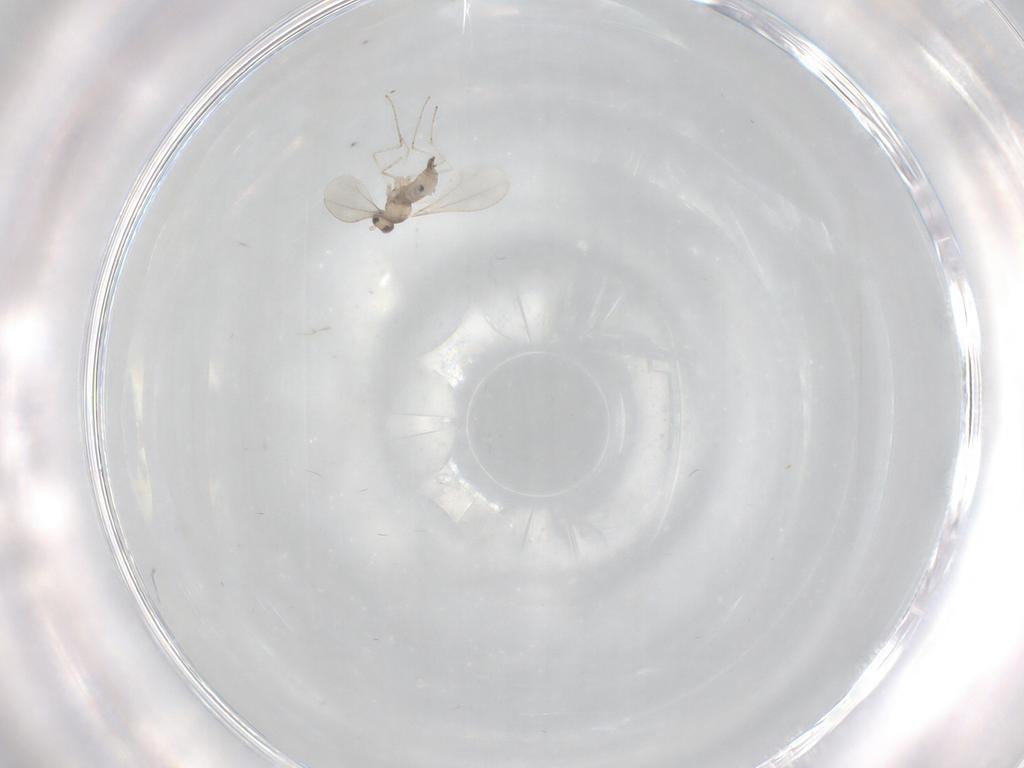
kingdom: Animalia
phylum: Arthropoda
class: Insecta
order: Diptera
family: Cecidomyiidae
